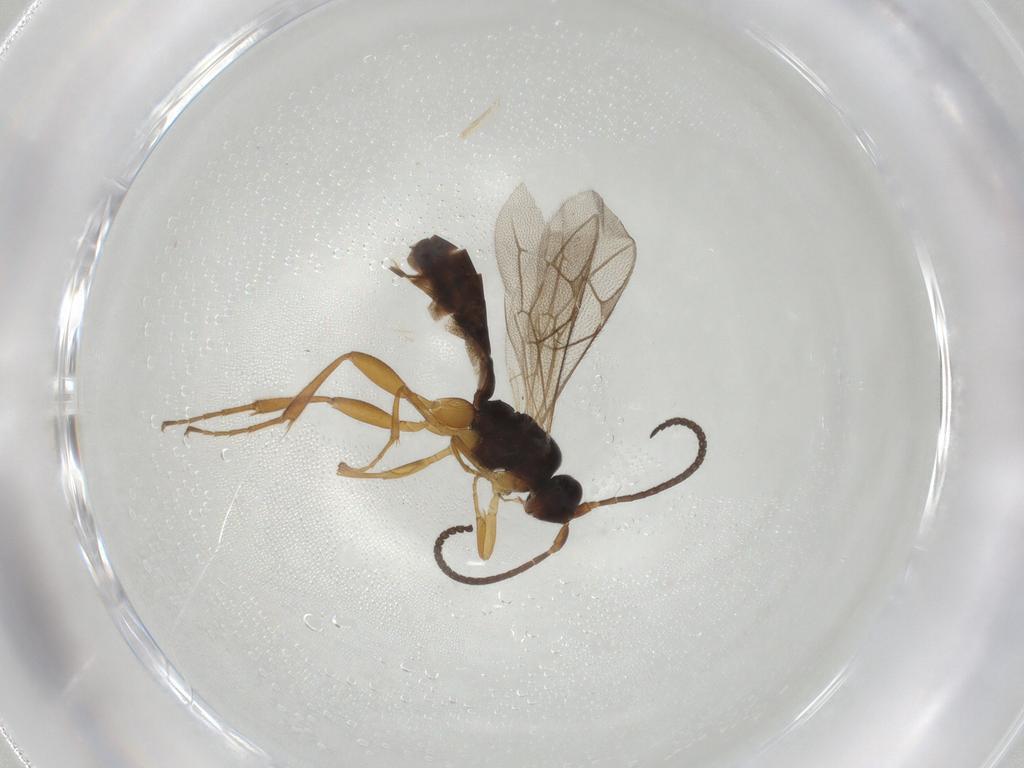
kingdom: Animalia
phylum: Arthropoda
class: Insecta
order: Hymenoptera
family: Ichneumonidae
